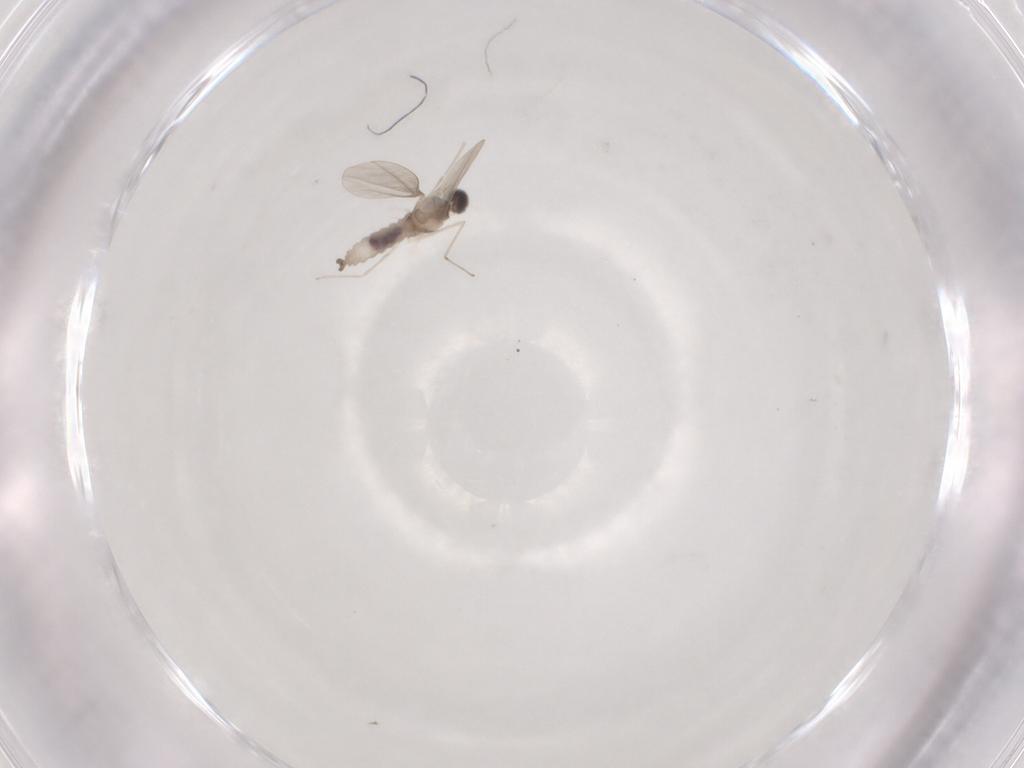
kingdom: Animalia
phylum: Arthropoda
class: Insecta
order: Diptera
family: Cecidomyiidae
